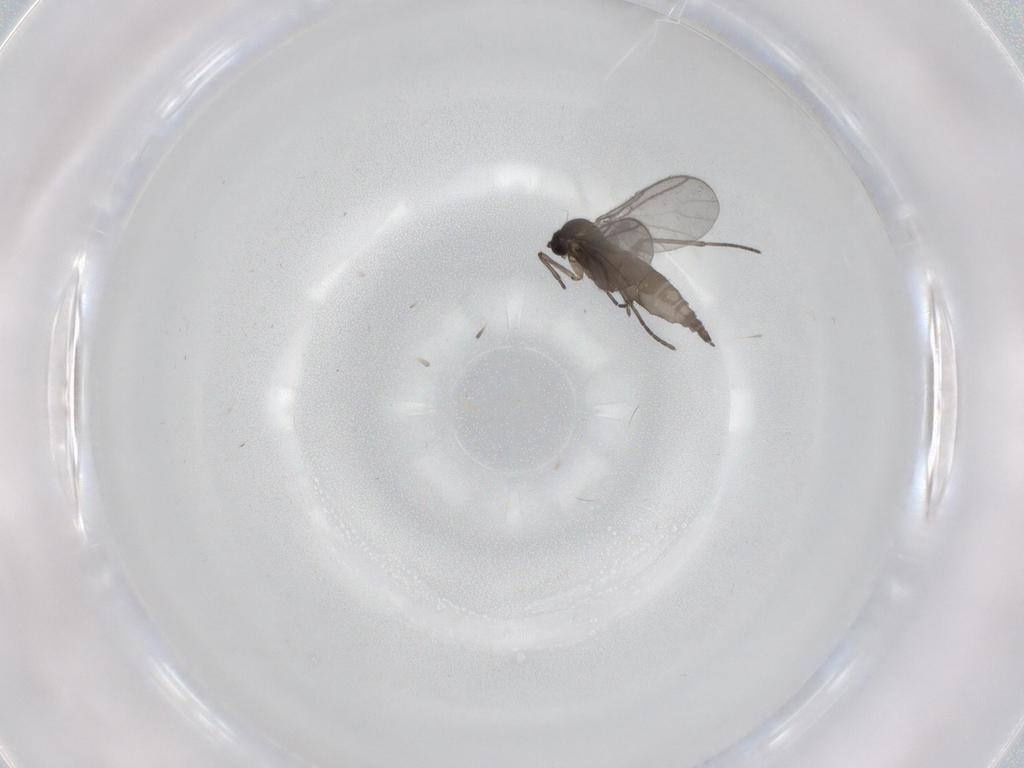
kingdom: Animalia
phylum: Arthropoda
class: Insecta
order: Diptera
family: Sciaridae
